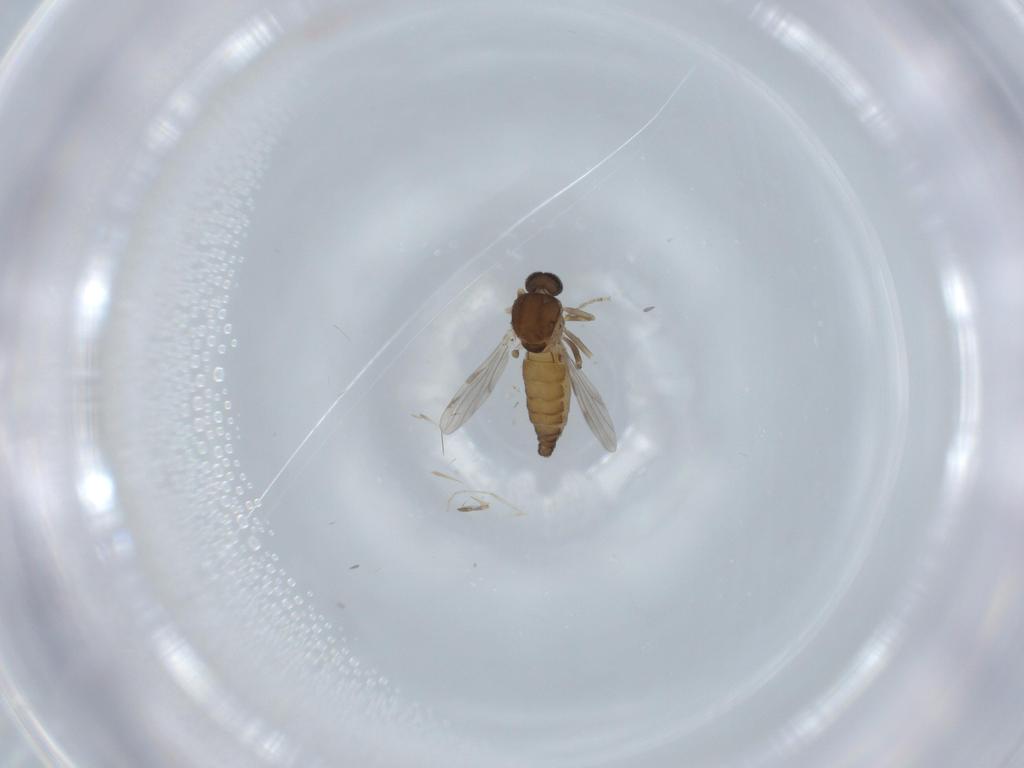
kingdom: Animalia
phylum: Arthropoda
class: Insecta
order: Diptera
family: Ceratopogonidae
